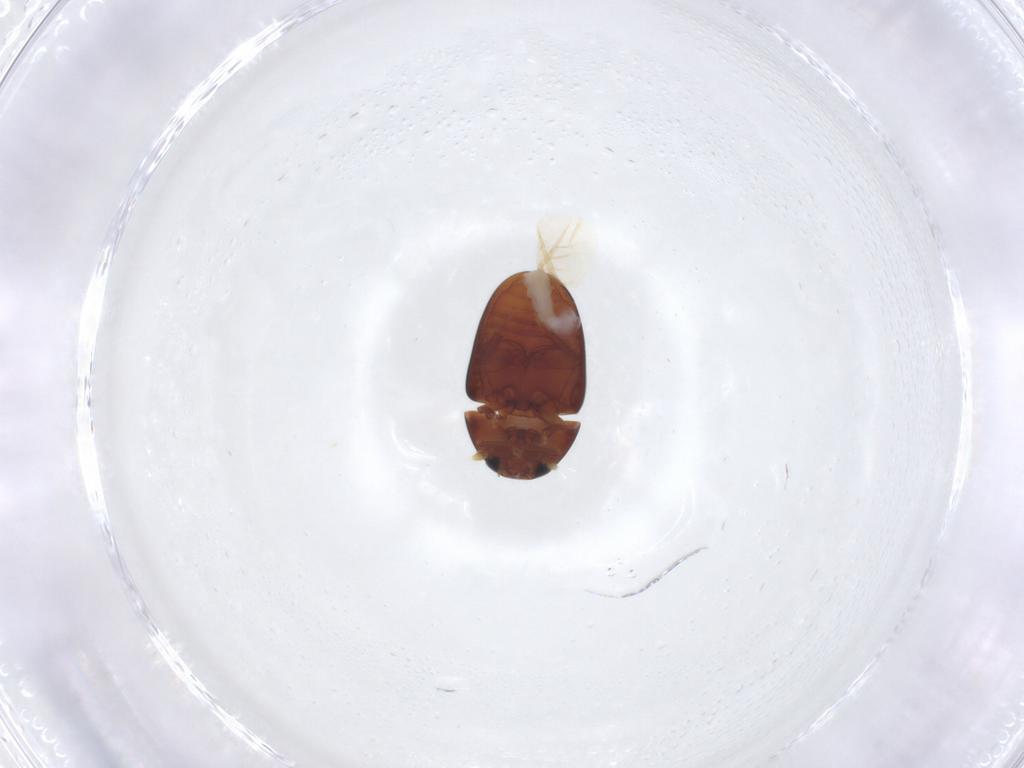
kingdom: Animalia
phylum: Arthropoda
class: Insecta
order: Coleoptera
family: Phalacridae
